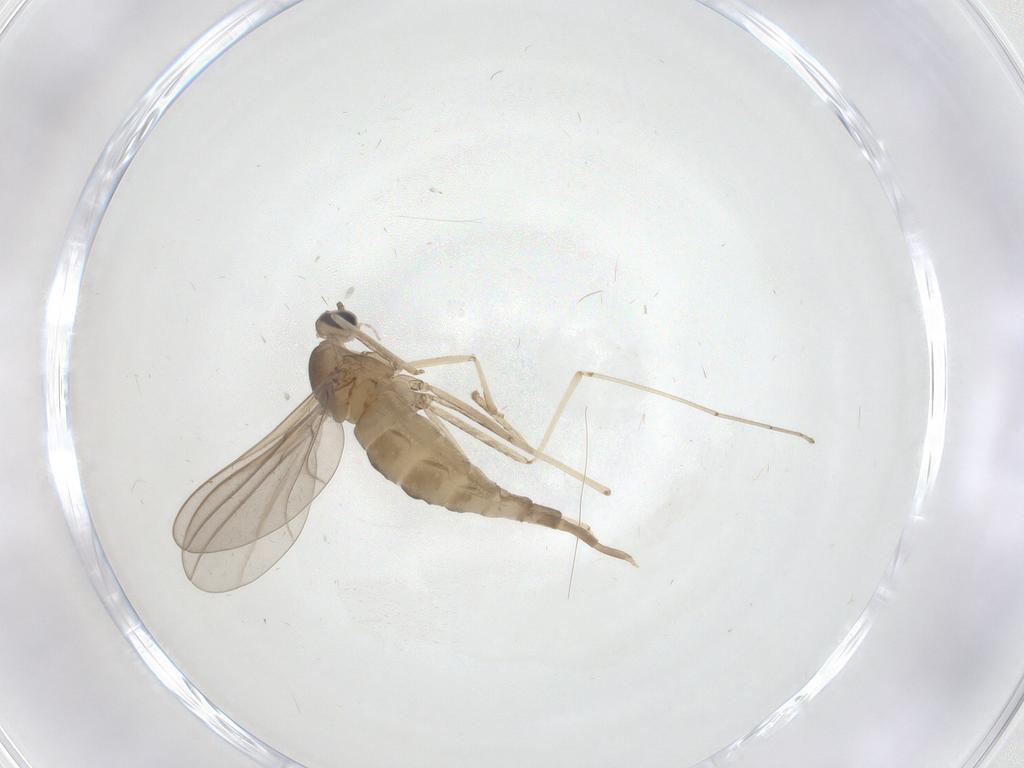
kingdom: Animalia
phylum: Arthropoda
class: Insecta
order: Diptera
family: Cecidomyiidae
